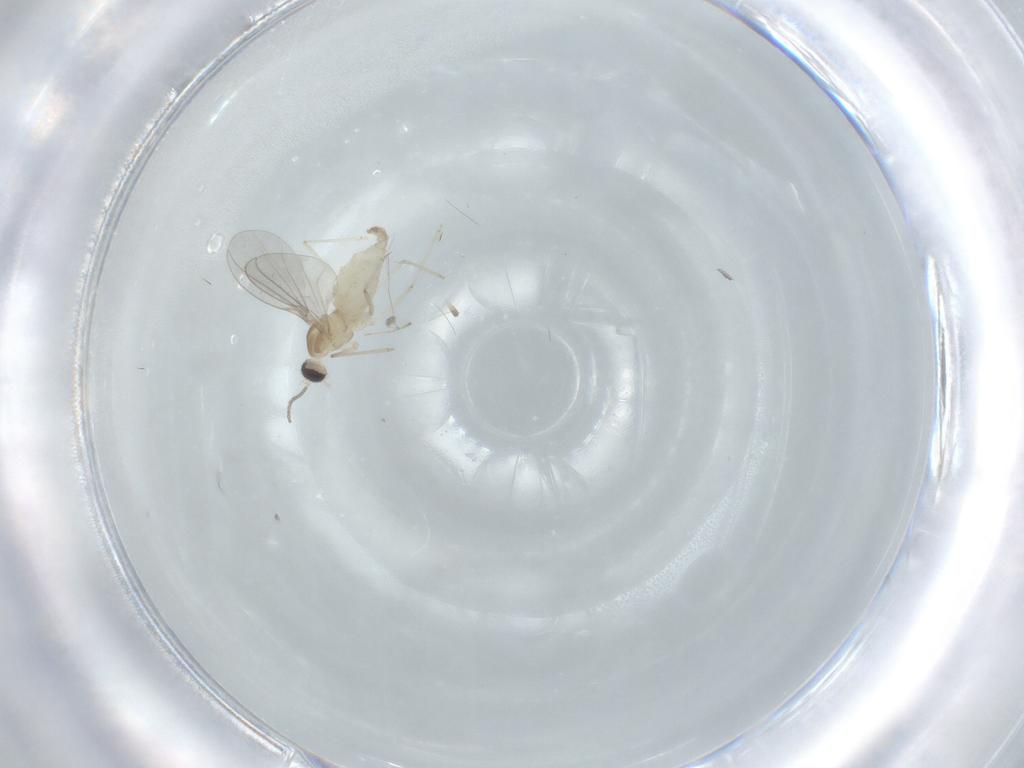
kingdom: Animalia
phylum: Arthropoda
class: Insecta
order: Diptera
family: Cecidomyiidae
